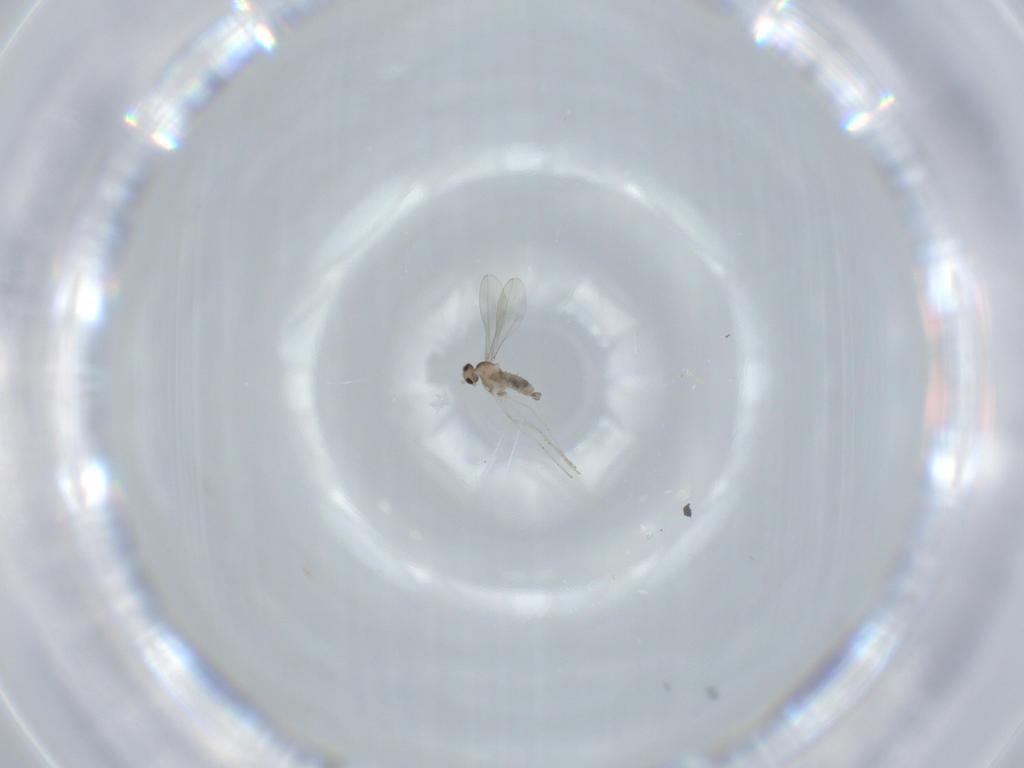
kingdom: Animalia
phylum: Arthropoda
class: Insecta
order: Diptera
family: Cecidomyiidae
